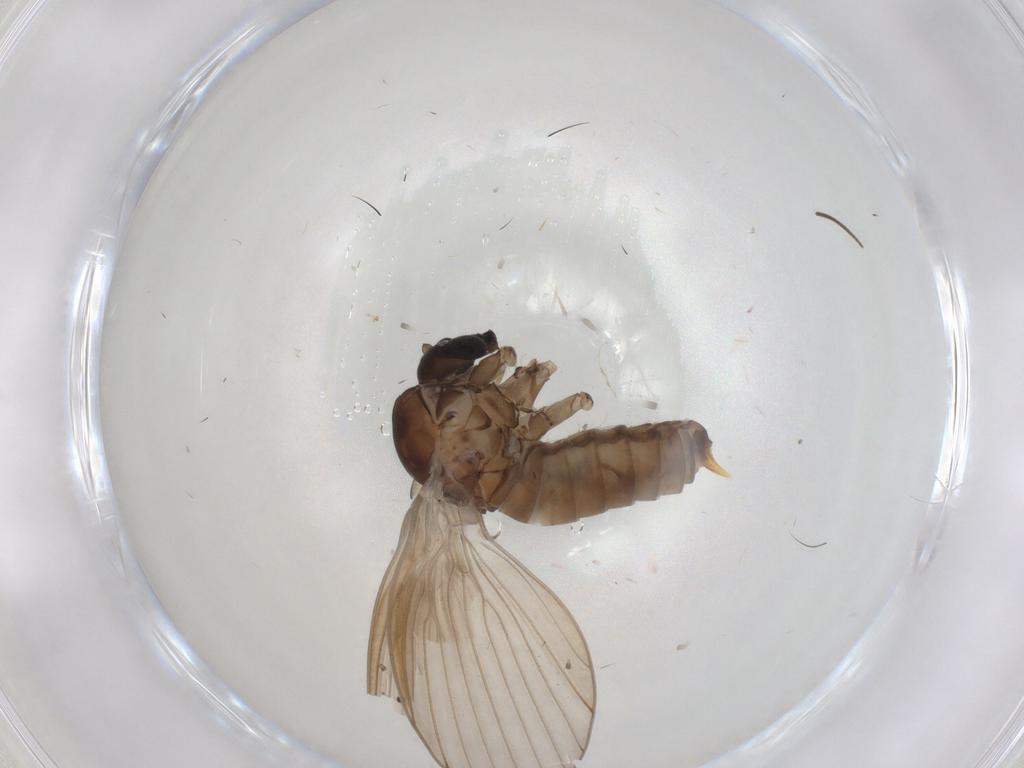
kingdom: Animalia
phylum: Arthropoda
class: Insecta
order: Diptera
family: Syrphidae
